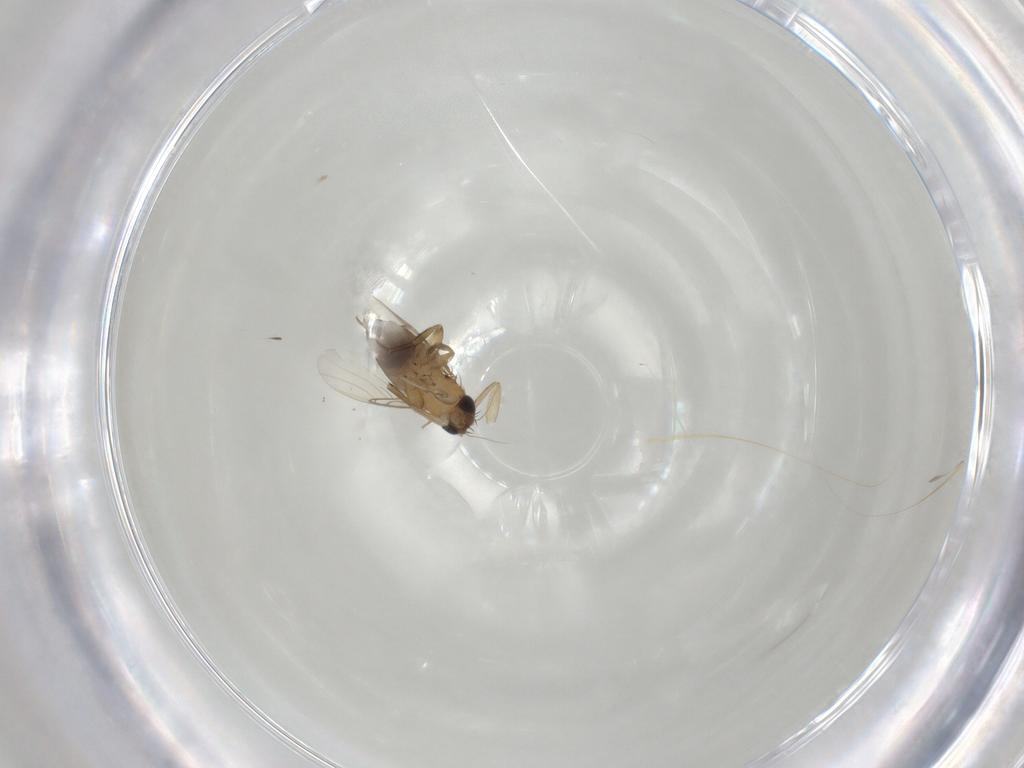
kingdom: Animalia
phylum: Arthropoda
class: Insecta
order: Diptera
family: Phoridae
